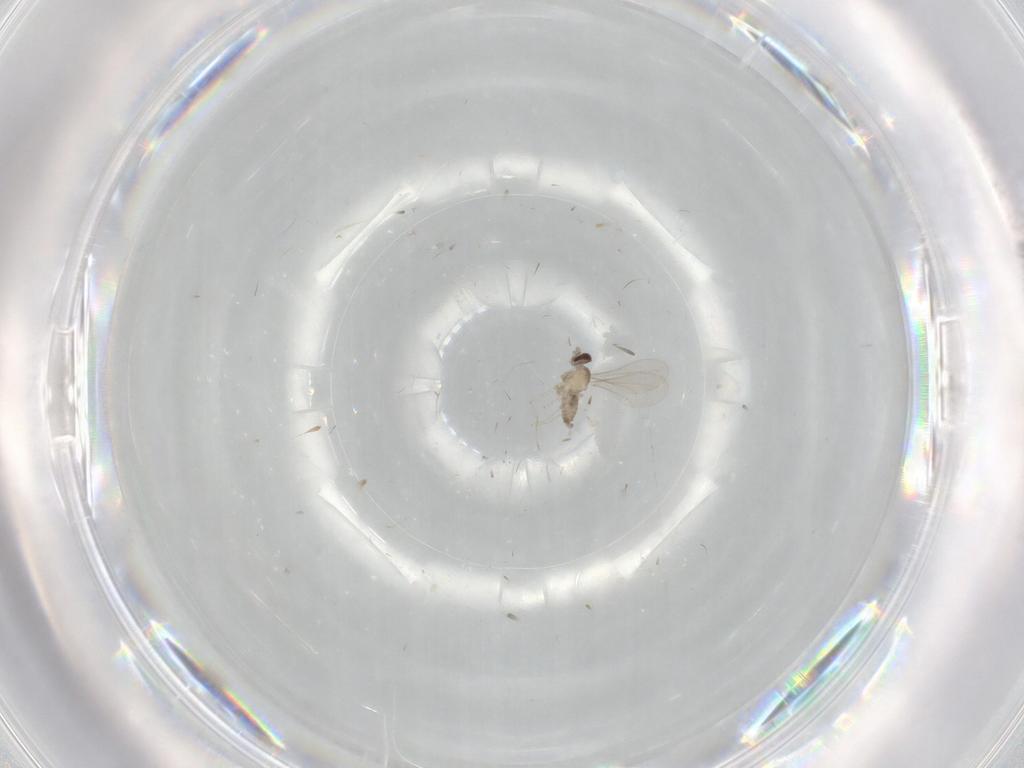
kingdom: Animalia
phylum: Arthropoda
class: Insecta
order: Diptera
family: Cecidomyiidae
